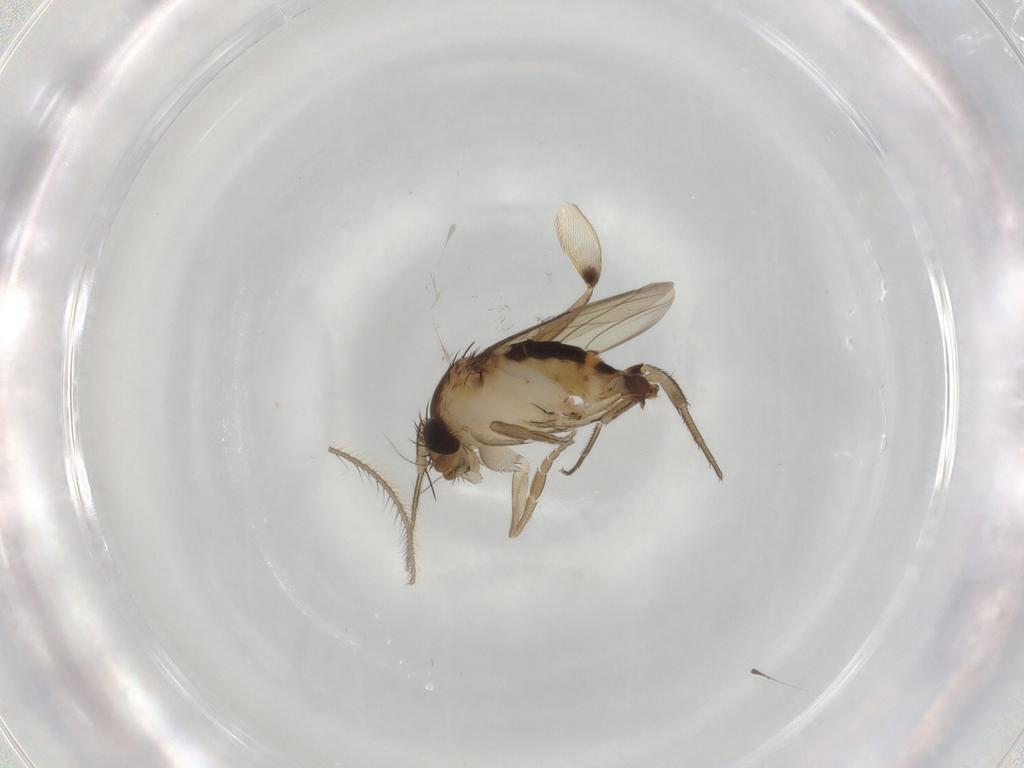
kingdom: Animalia
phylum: Arthropoda
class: Insecta
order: Diptera
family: Phoridae
